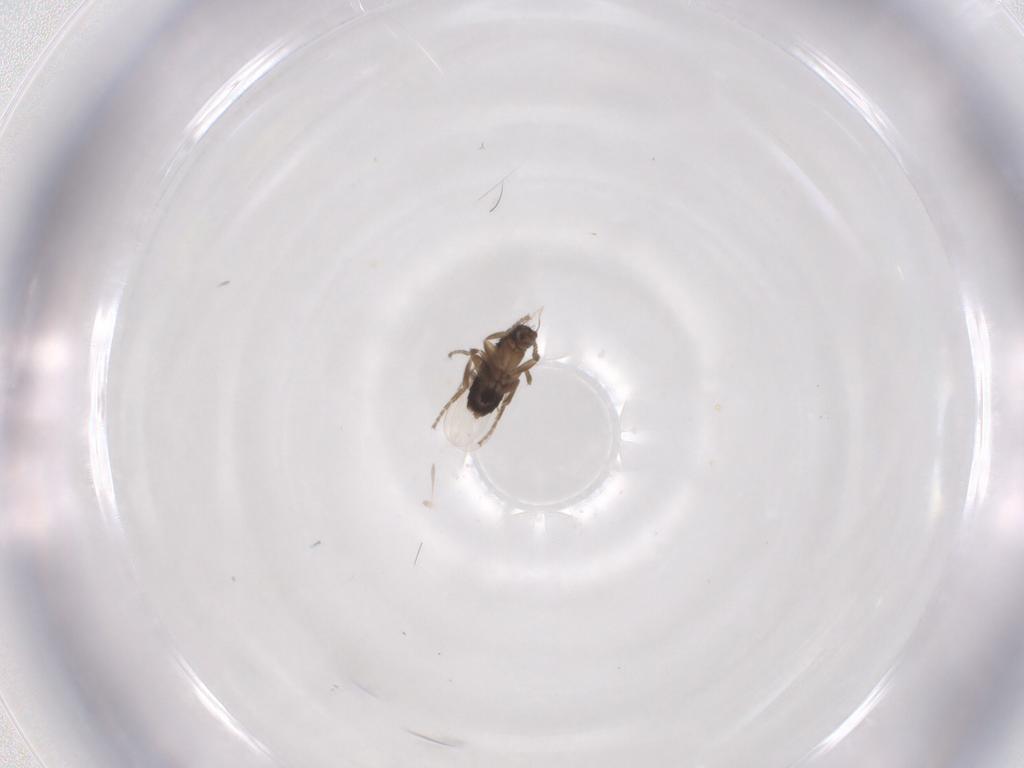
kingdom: Animalia
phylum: Arthropoda
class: Insecta
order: Diptera
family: Phoridae
